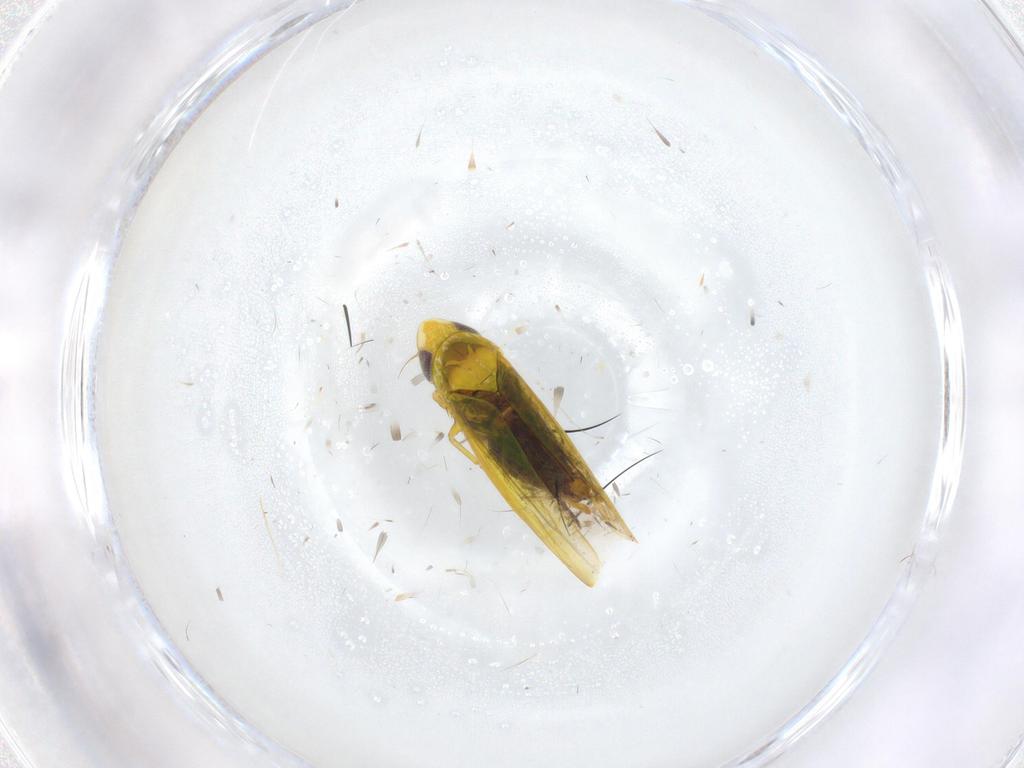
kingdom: Animalia
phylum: Arthropoda
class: Insecta
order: Hemiptera
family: Cicadellidae
